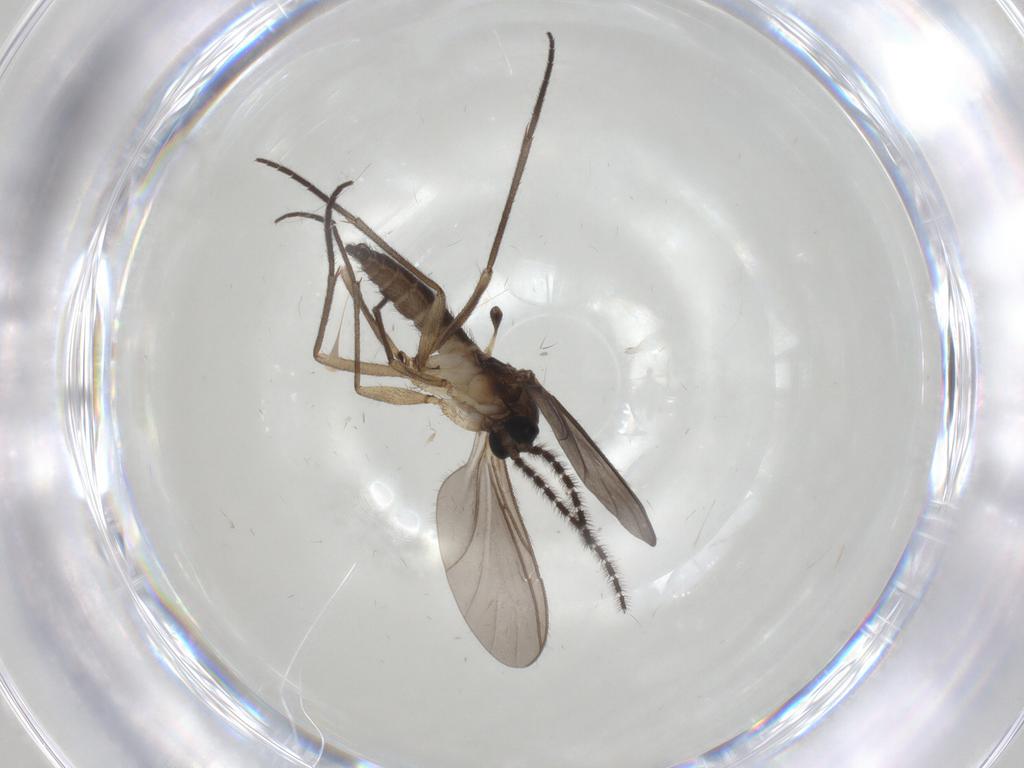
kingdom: Animalia
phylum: Arthropoda
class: Insecta
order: Diptera
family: Sciaridae
